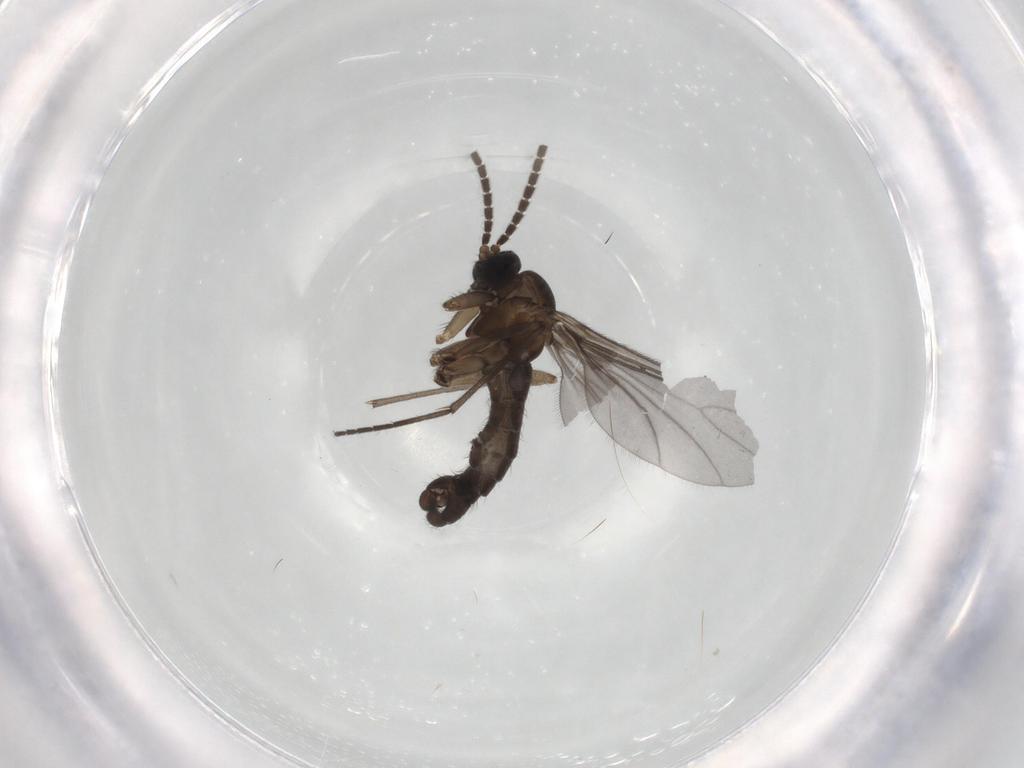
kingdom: Animalia
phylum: Arthropoda
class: Insecta
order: Diptera
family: Sciaridae
